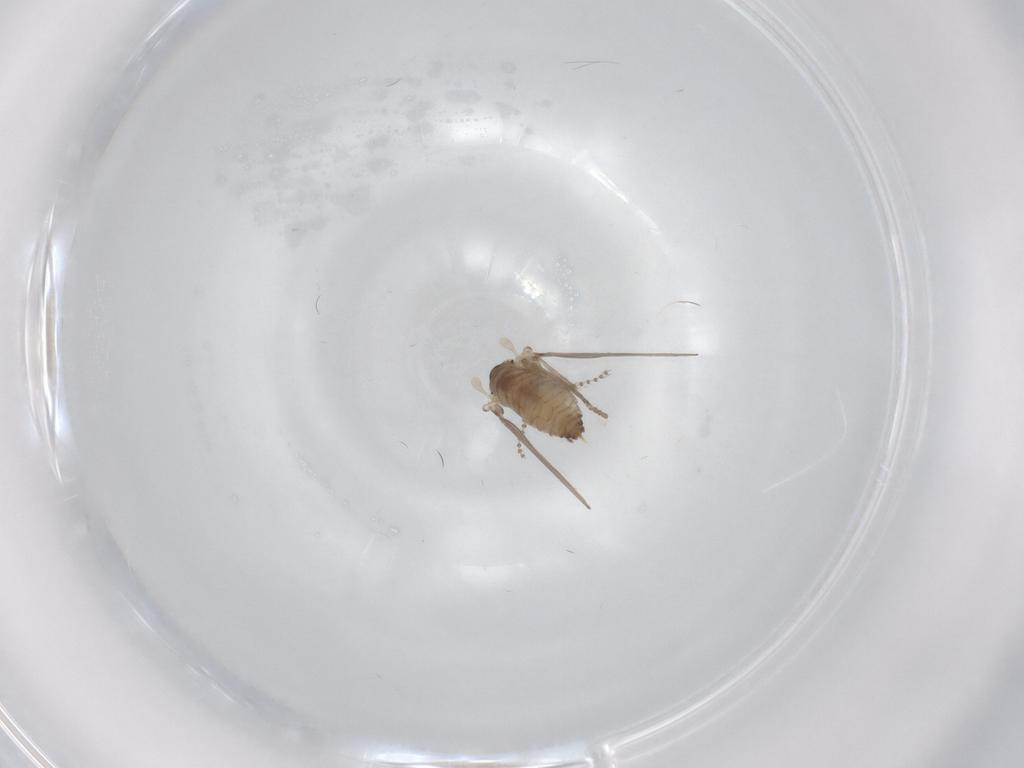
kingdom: Animalia
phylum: Arthropoda
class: Insecta
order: Diptera
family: Psychodidae
